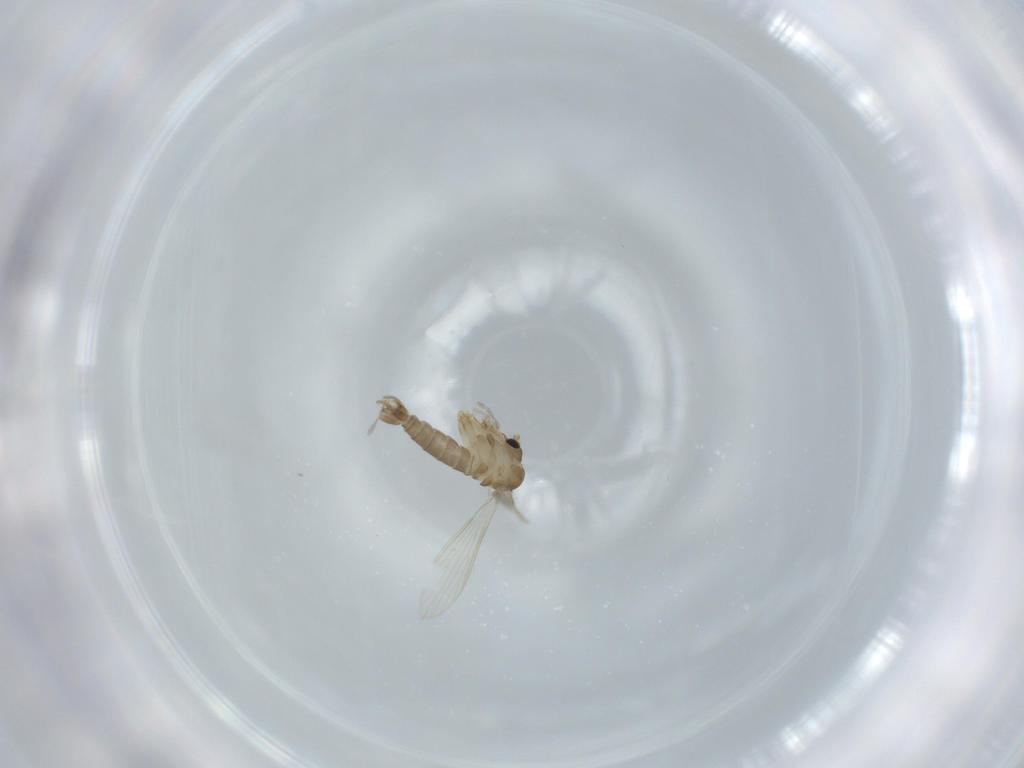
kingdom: Animalia
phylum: Arthropoda
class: Insecta
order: Diptera
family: Psychodidae
